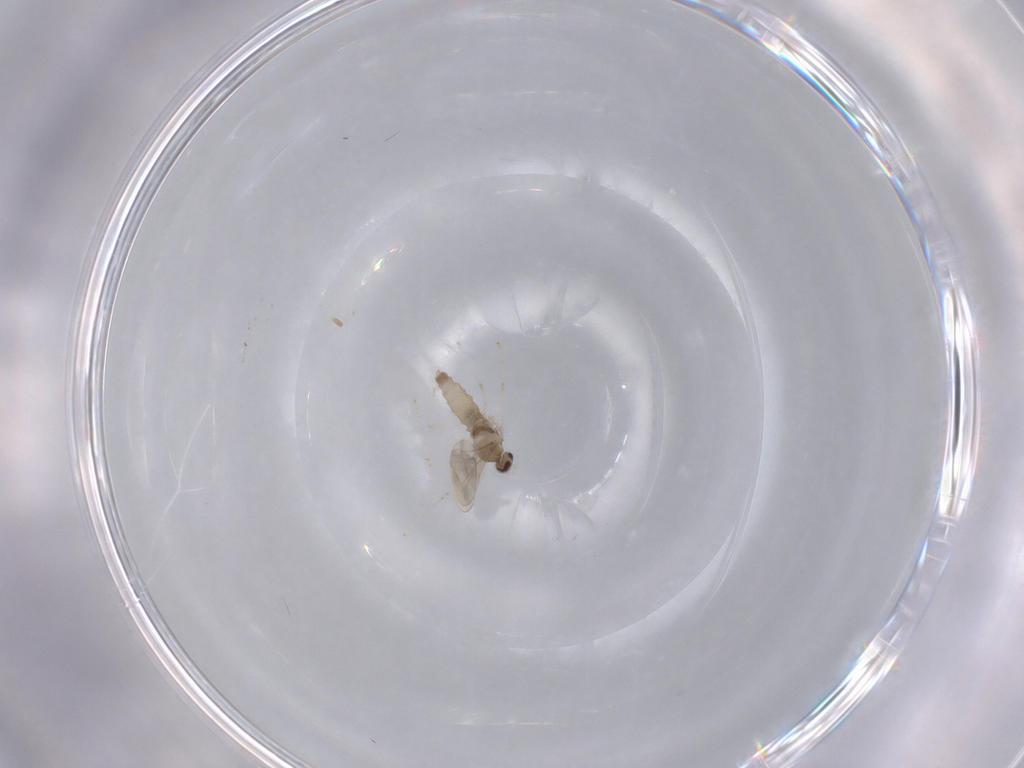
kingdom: Animalia
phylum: Arthropoda
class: Insecta
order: Diptera
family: Cecidomyiidae
